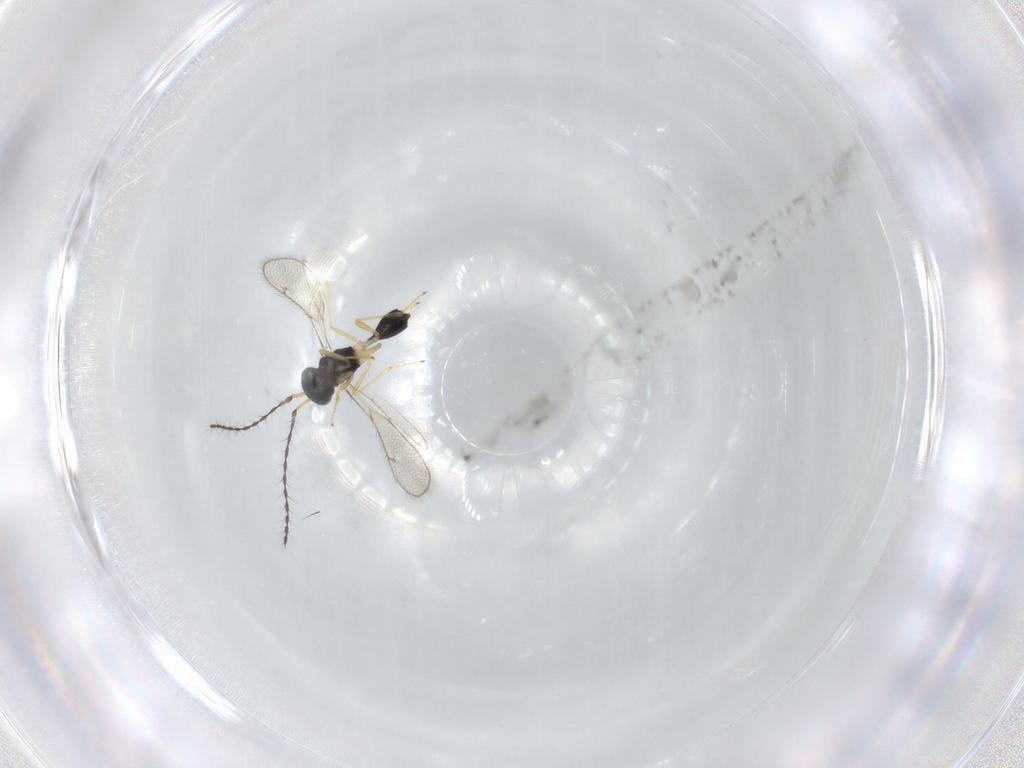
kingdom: Animalia
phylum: Arthropoda
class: Insecta
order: Hymenoptera
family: Diparidae
